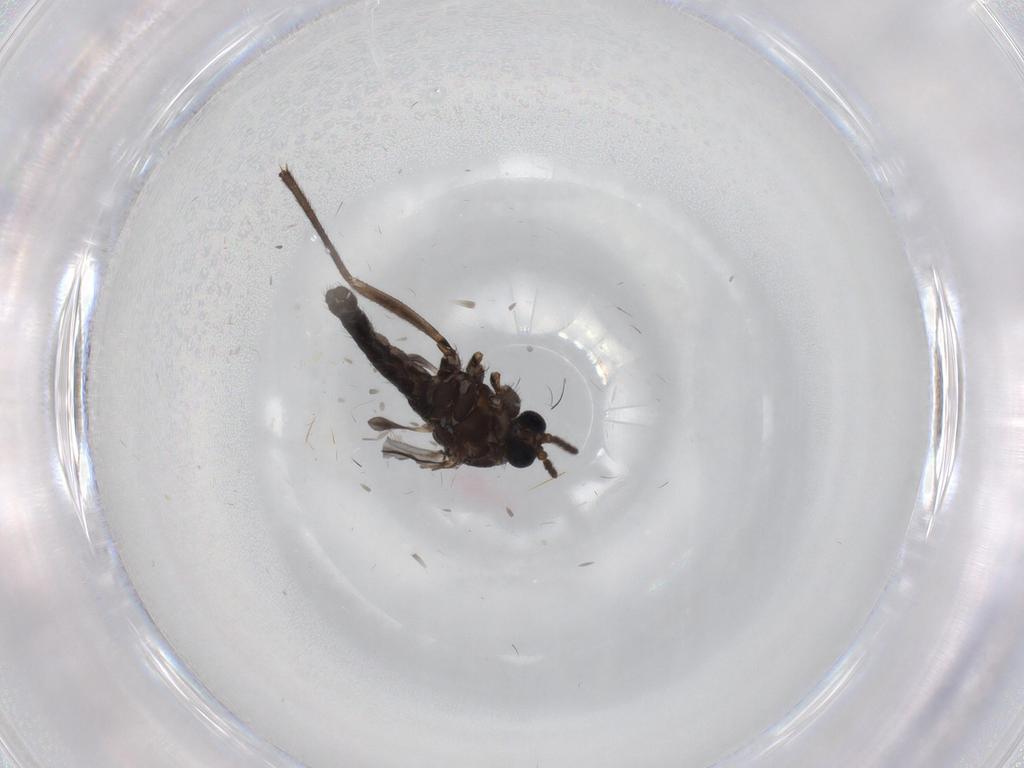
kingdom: Animalia
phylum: Arthropoda
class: Insecta
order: Diptera
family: Sciaridae
